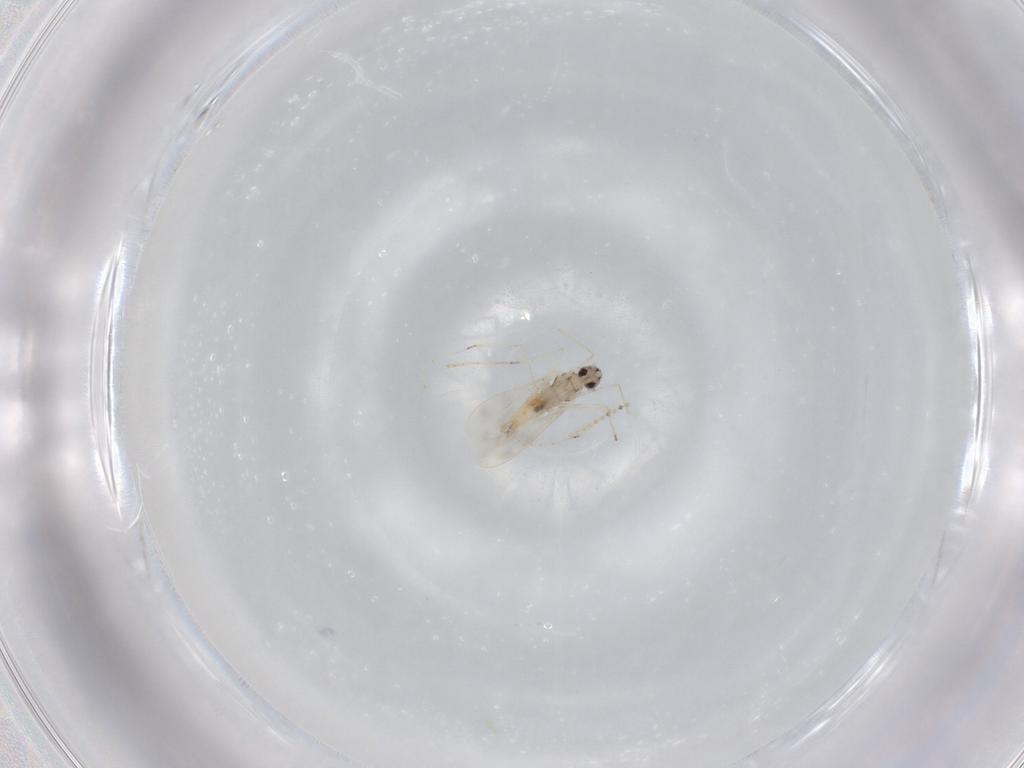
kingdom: Animalia
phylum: Arthropoda
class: Insecta
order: Diptera
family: Cecidomyiidae
